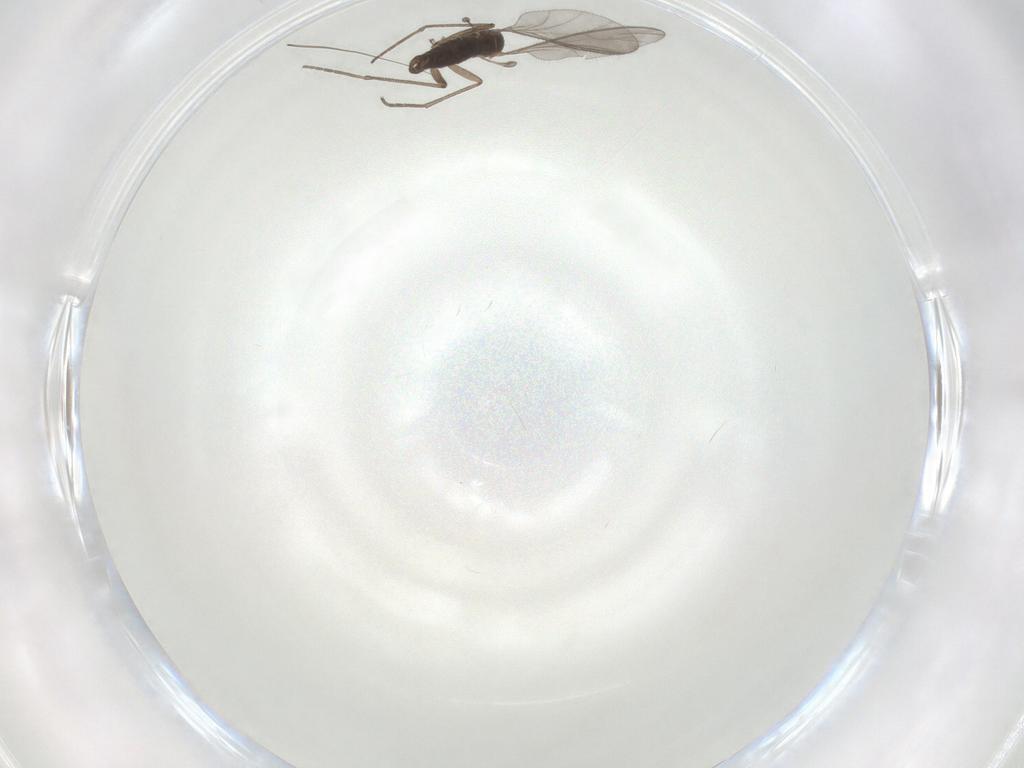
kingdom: Animalia
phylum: Arthropoda
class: Insecta
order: Diptera
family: Sciaridae
